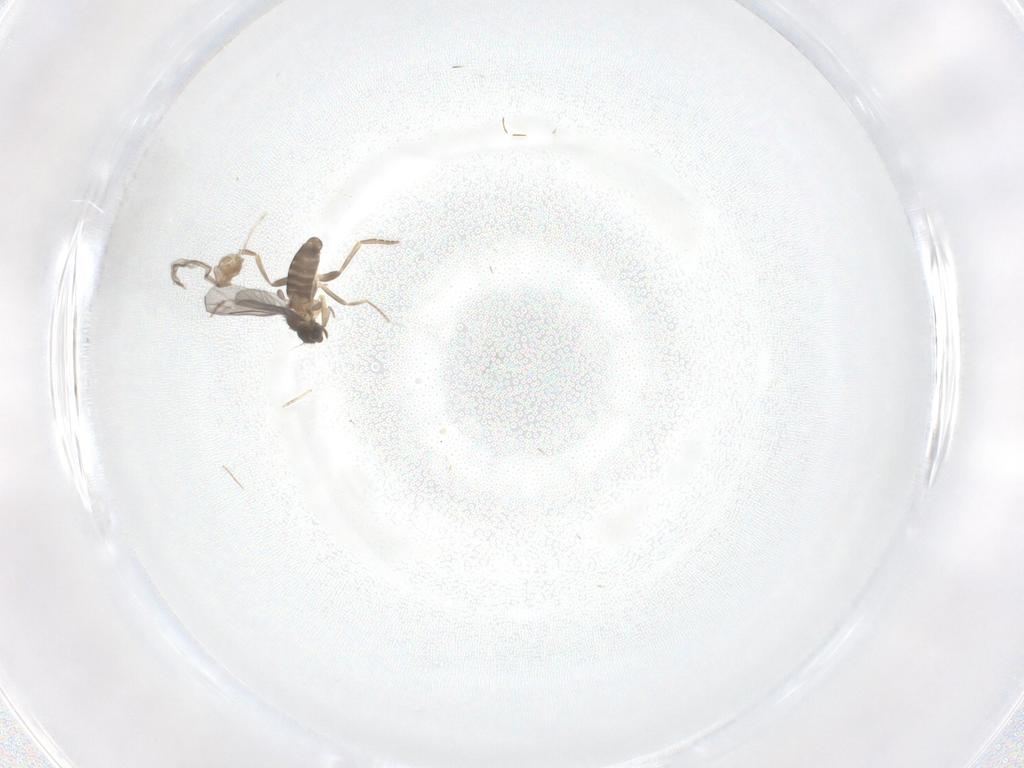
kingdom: Animalia
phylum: Arthropoda
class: Insecta
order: Diptera
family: Chironomidae
